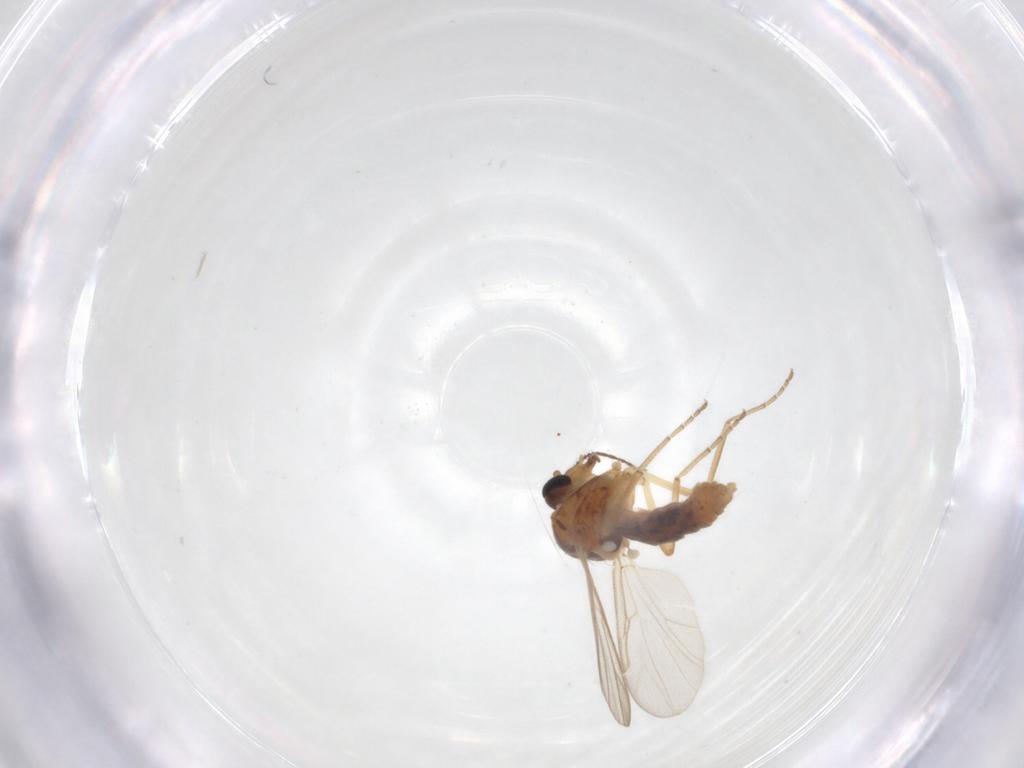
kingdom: Animalia
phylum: Arthropoda
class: Insecta
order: Diptera
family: Ceratopogonidae
